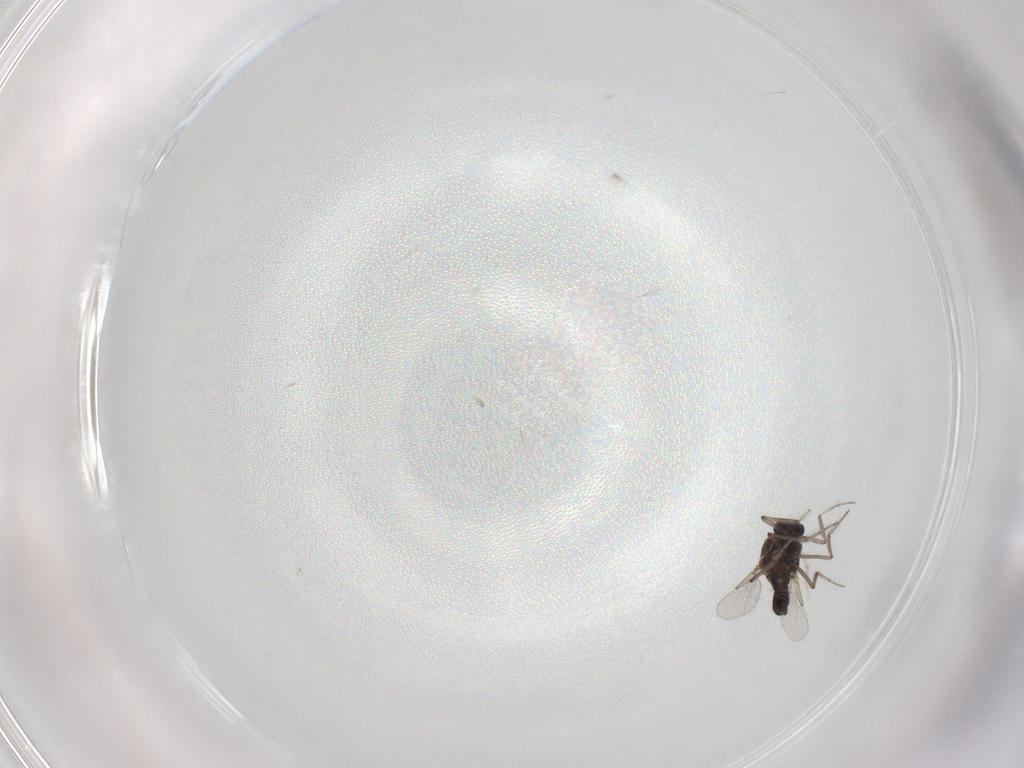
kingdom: Animalia
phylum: Arthropoda
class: Insecta
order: Diptera
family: Ceratopogonidae
